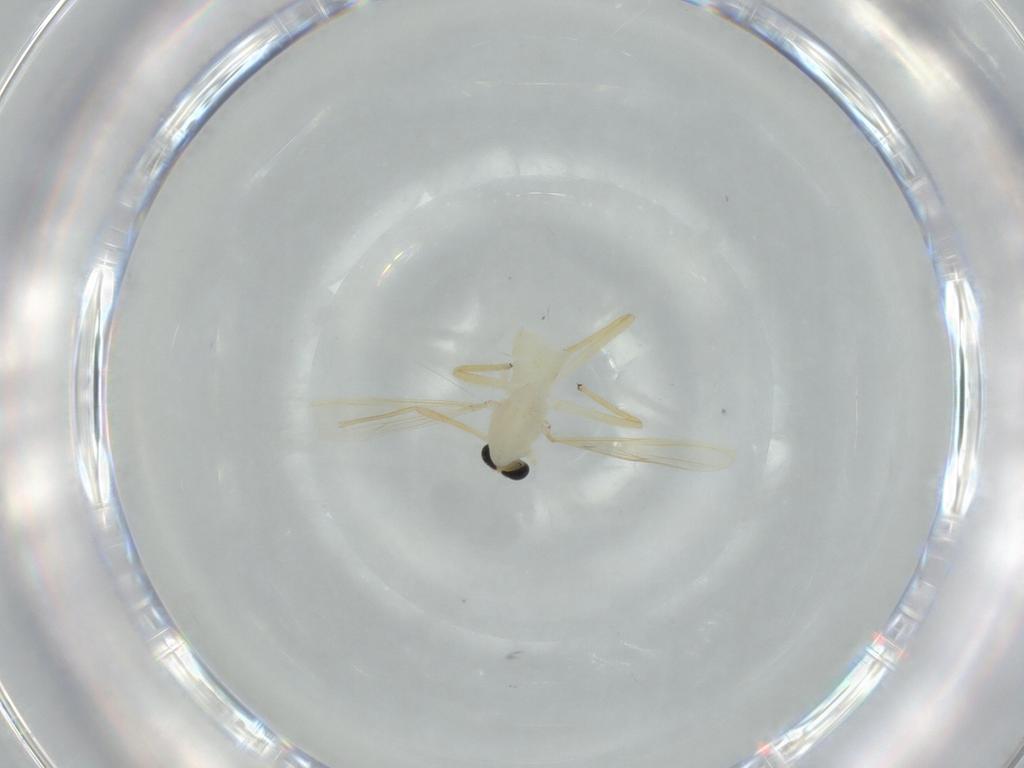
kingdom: Animalia
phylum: Arthropoda
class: Insecta
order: Diptera
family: Chironomidae
